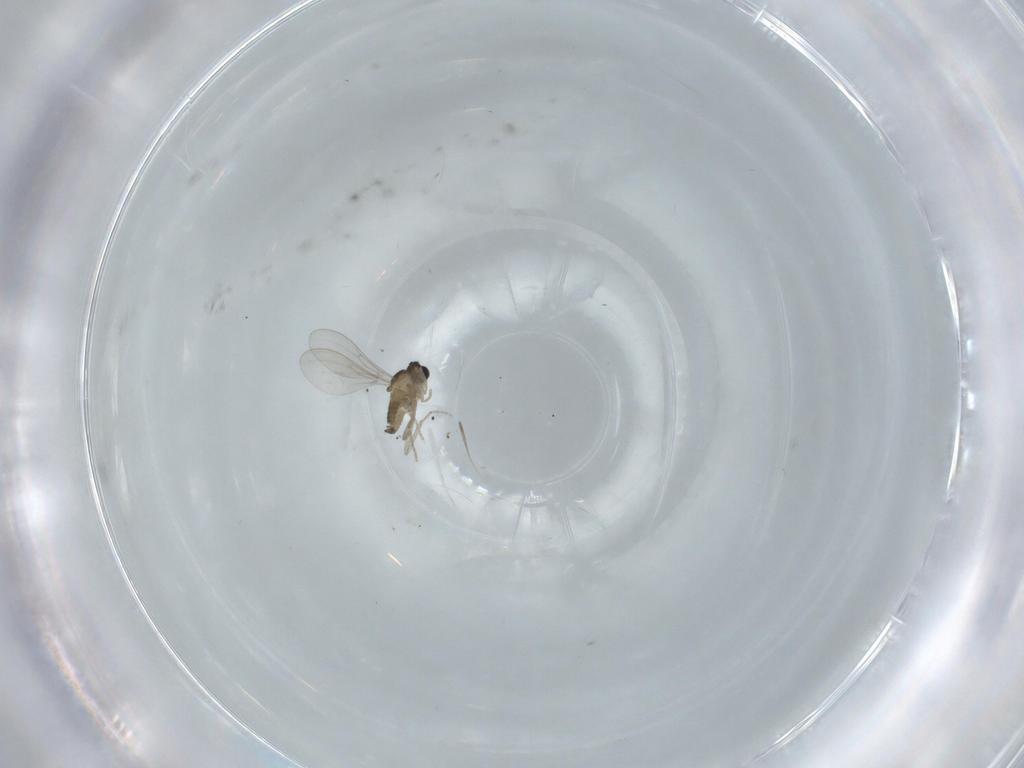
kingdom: Animalia
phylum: Arthropoda
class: Insecta
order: Diptera
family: Cecidomyiidae
